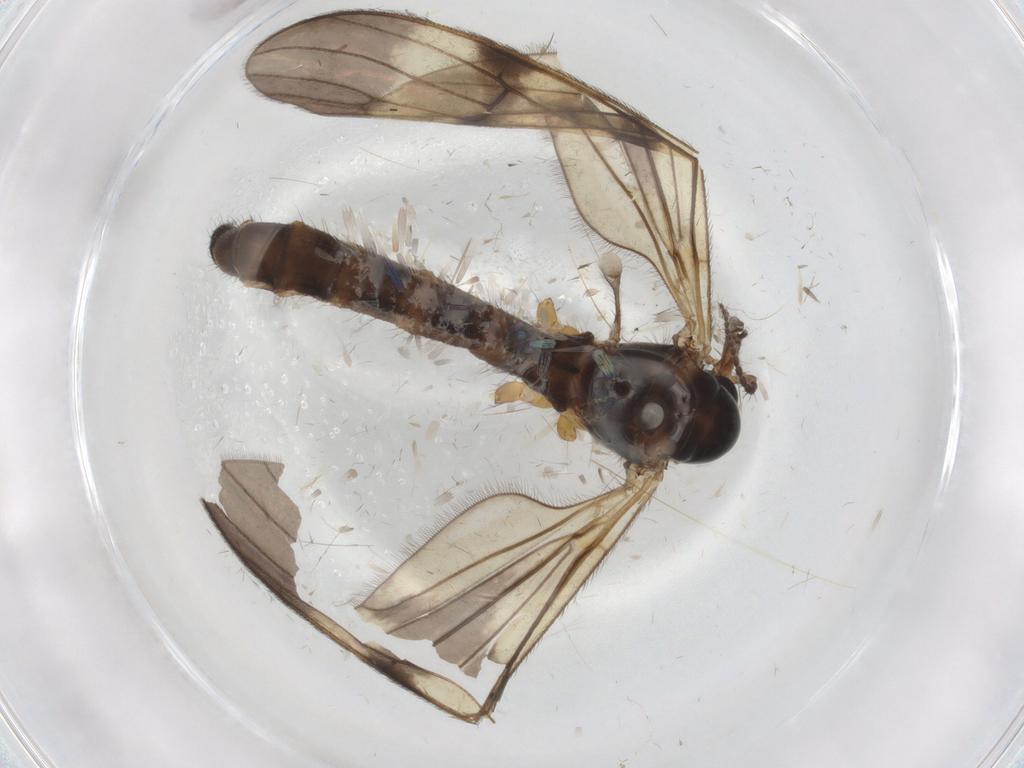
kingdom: Animalia
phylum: Arthropoda
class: Insecta
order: Diptera
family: Limoniidae
